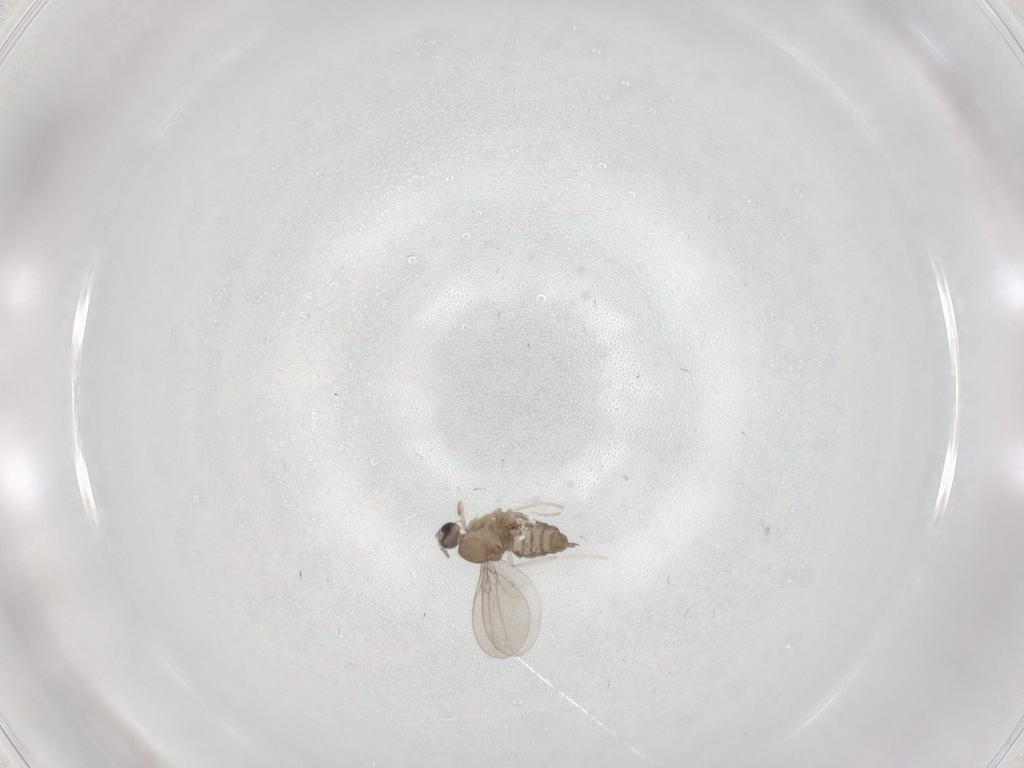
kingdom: Animalia
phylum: Arthropoda
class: Insecta
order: Diptera
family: Cecidomyiidae
